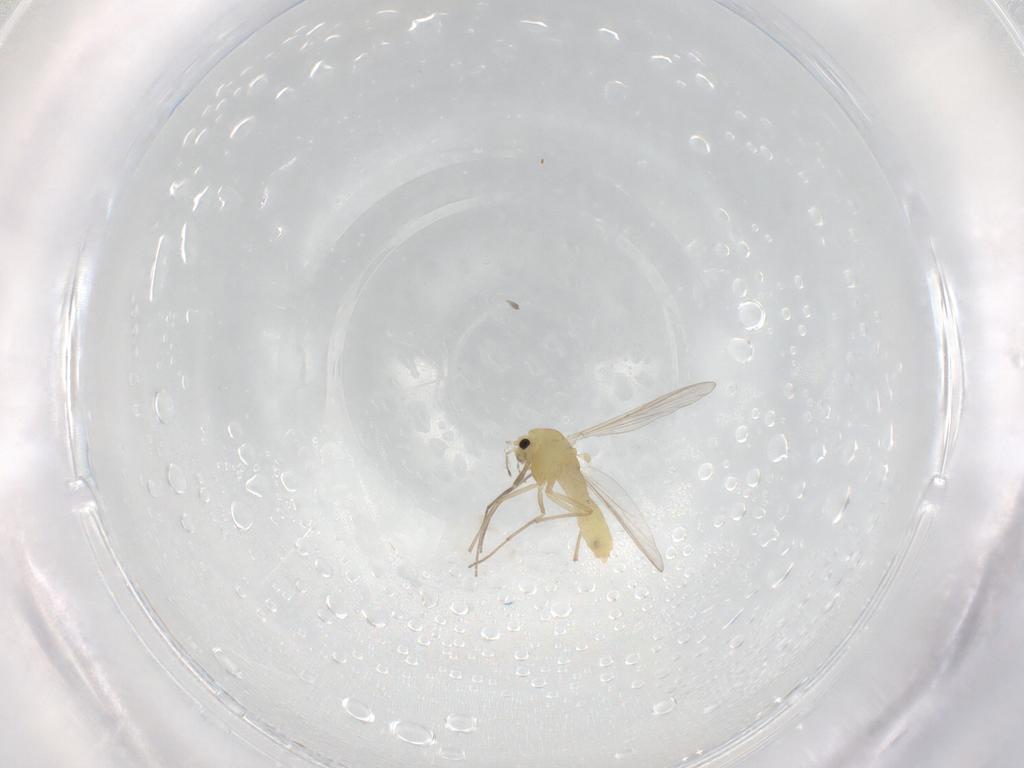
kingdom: Animalia
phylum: Arthropoda
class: Insecta
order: Diptera
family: Chironomidae
